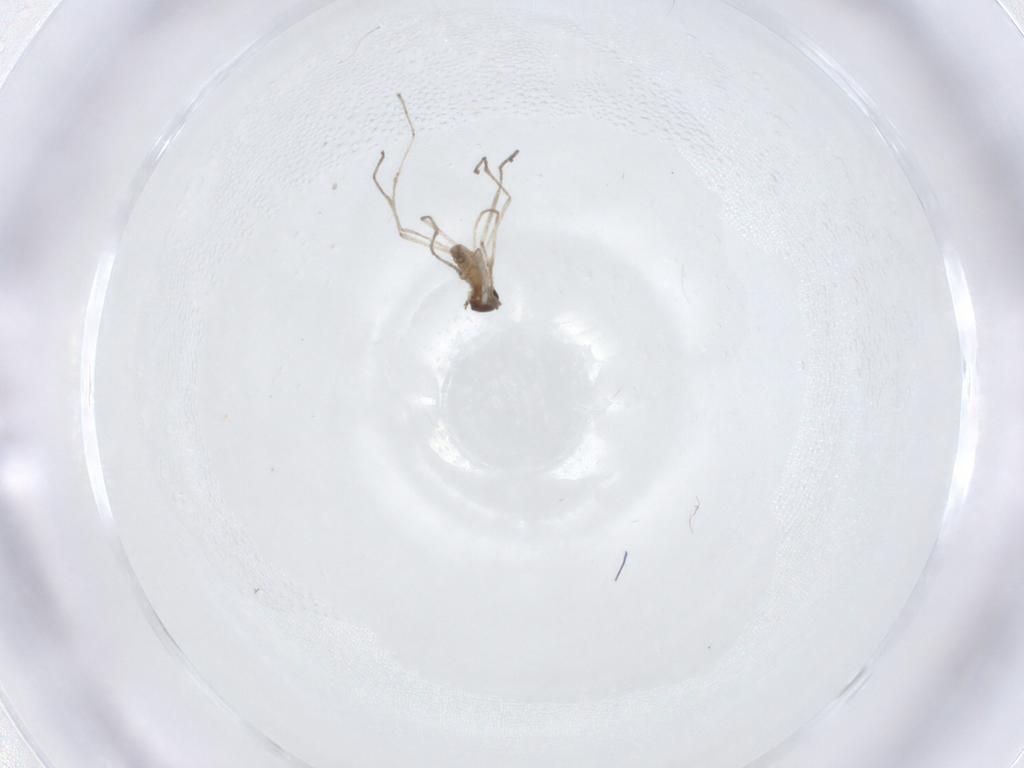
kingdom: Animalia
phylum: Arthropoda
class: Insecta
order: Diptera
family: Cecidomyiidae
